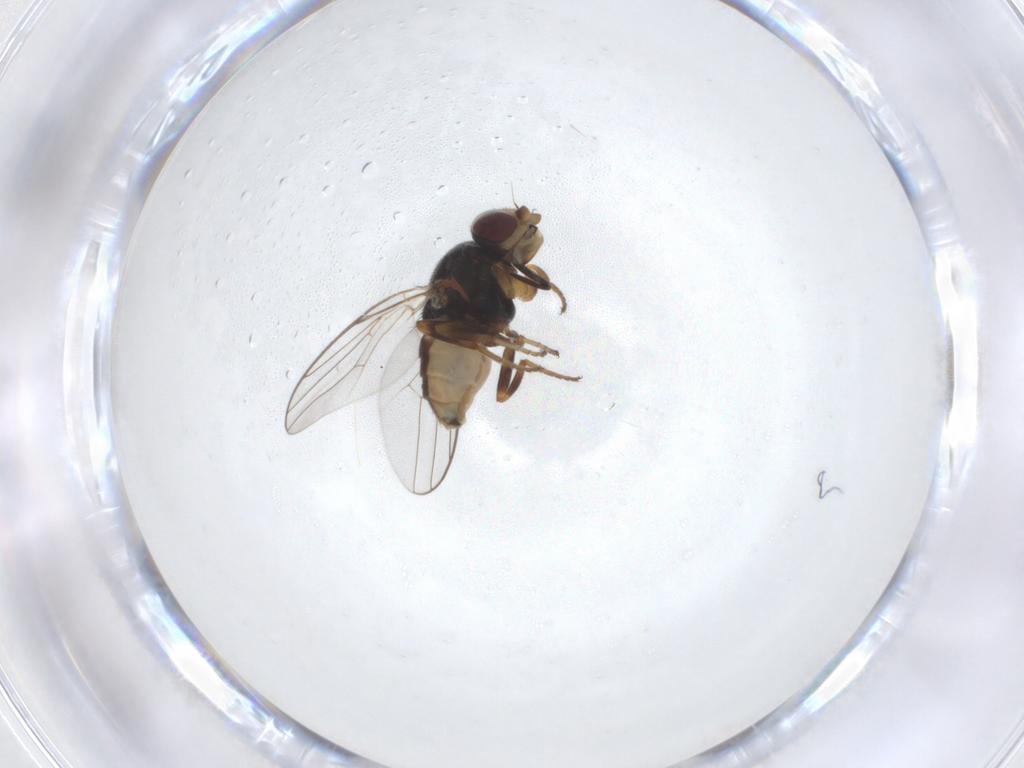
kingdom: Animalia
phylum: Arthropoda
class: Insecta
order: Diptera
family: Chloropidae
